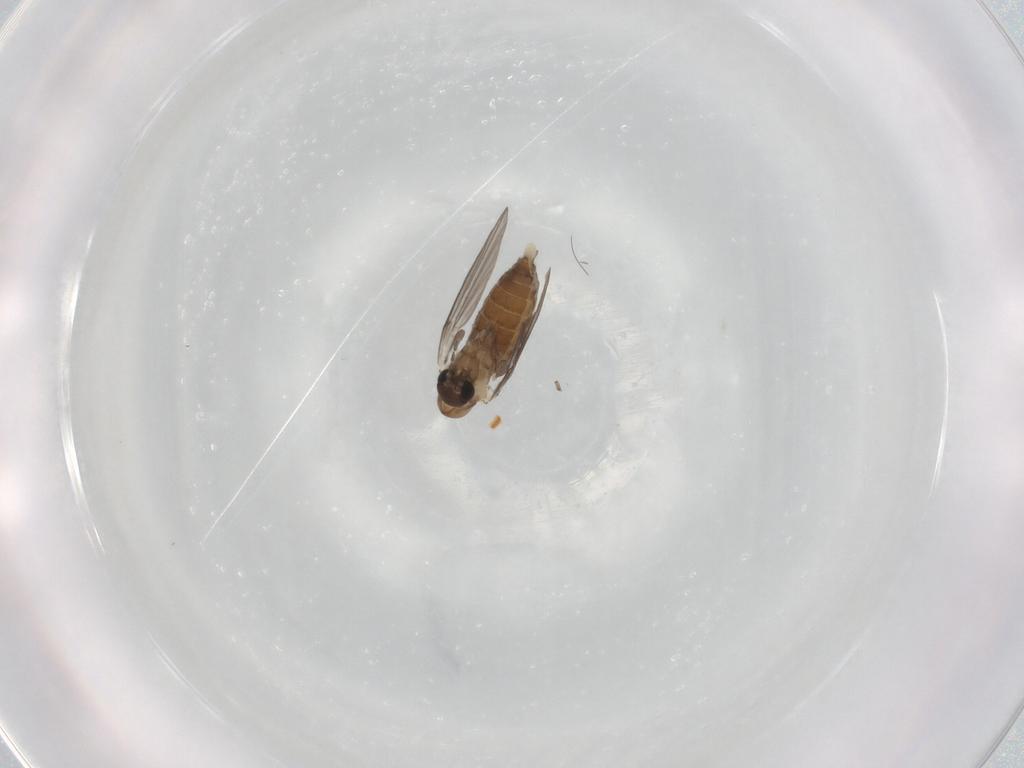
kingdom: Animalia
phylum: Arthropoda
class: Insecta
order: Diptera
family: Psychodidae
